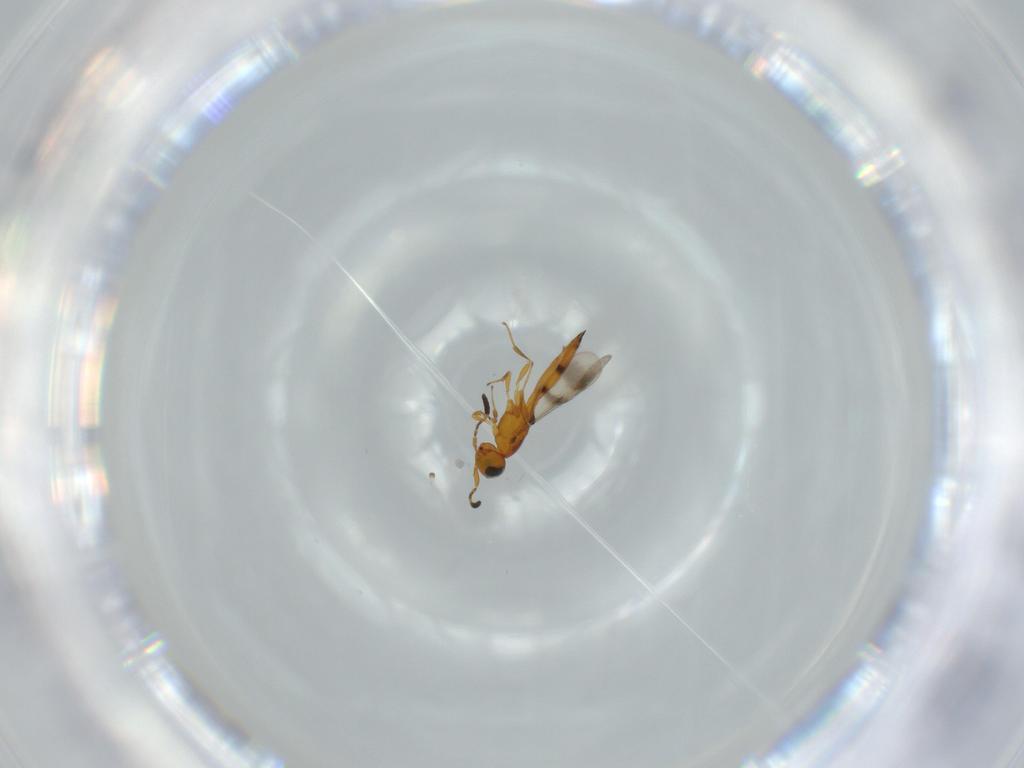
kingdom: Animalia
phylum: Arthropoda
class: Insecta
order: Hymenoptera
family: Scelionidae
